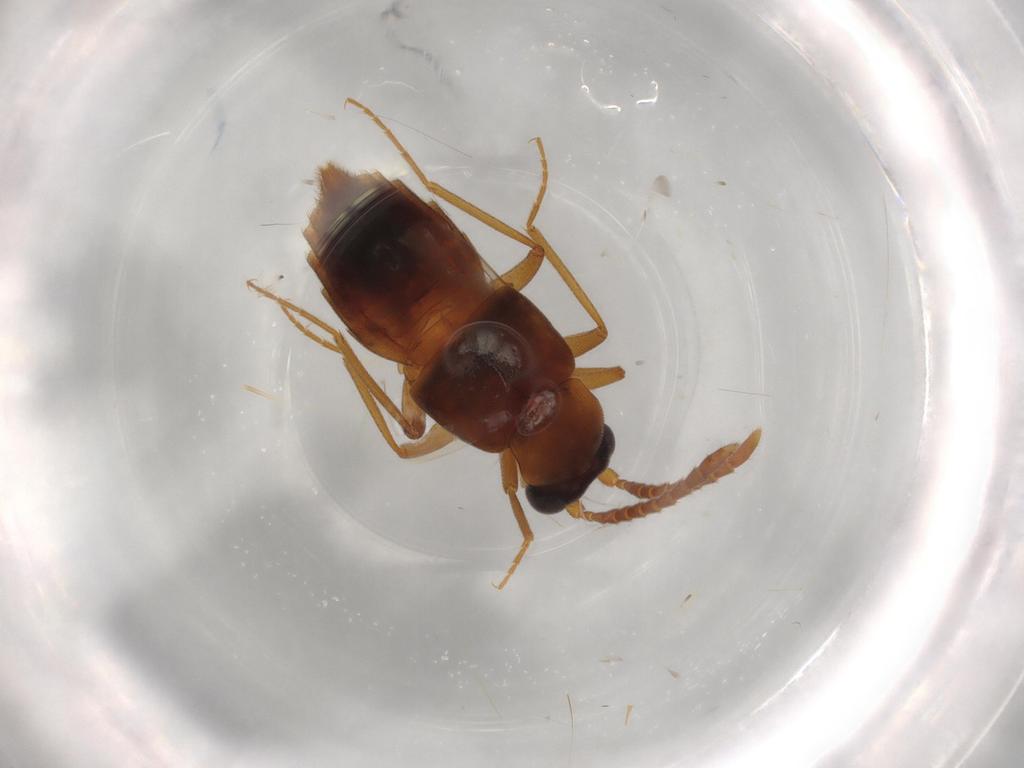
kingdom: Animalia
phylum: Arthropoda
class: Insecta
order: Coleoptera
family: Staphylinidae
